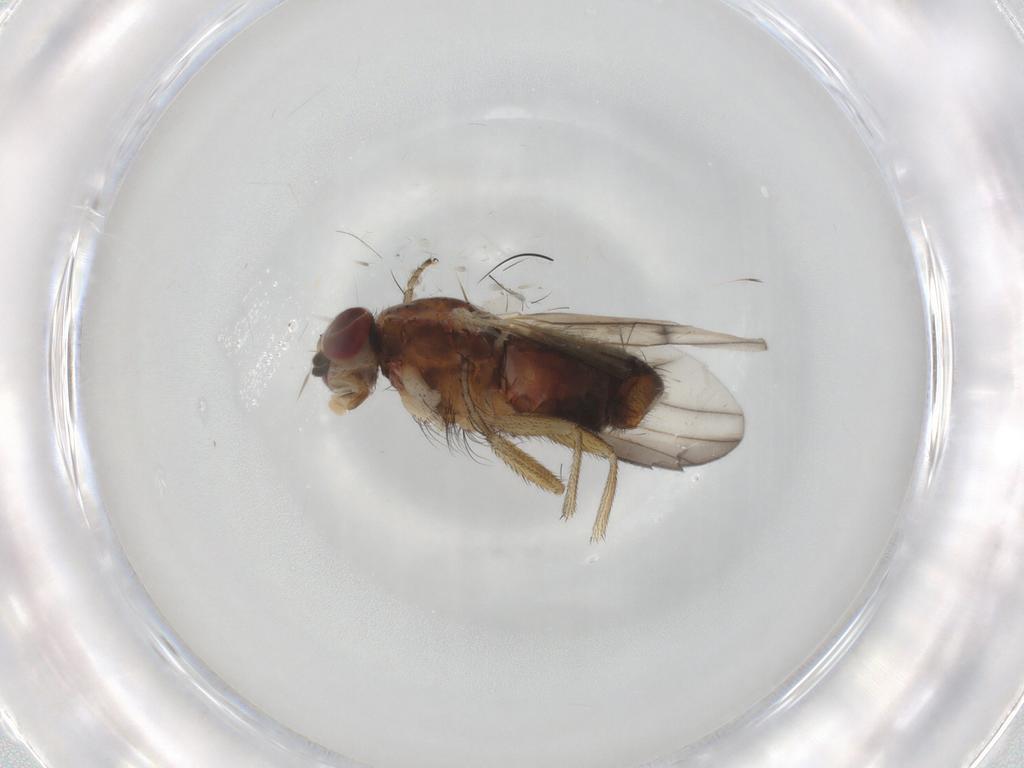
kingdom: Animalia
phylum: Arthropoda
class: Insecta
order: Diptera
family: Heleomyzidae
